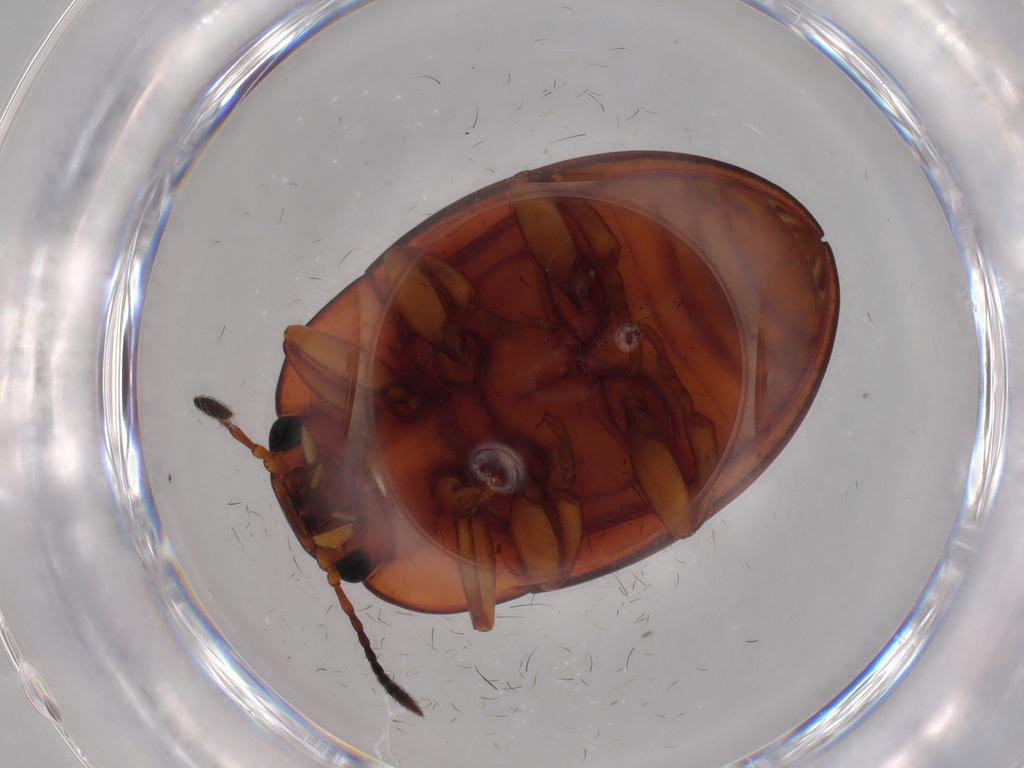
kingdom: Animalia
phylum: Arthropoda
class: Insecta
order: Coleoptera
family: Erotylidae
